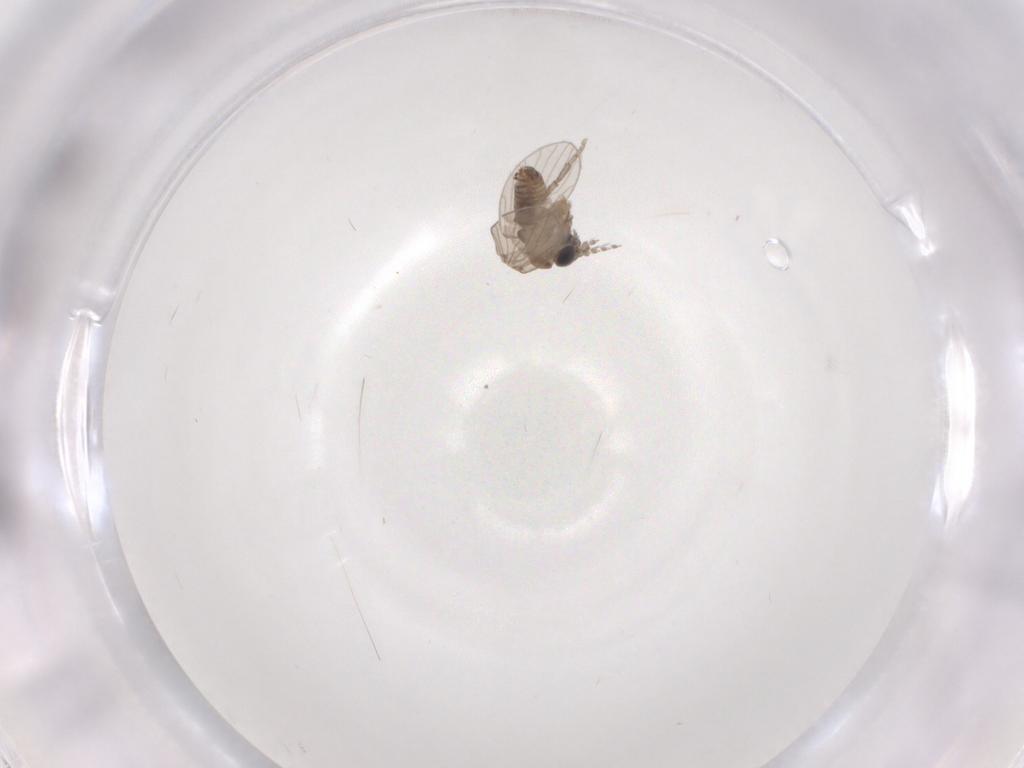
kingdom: Animalia
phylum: Arthropoda
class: Insecta
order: Diptera
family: Psychodidae
